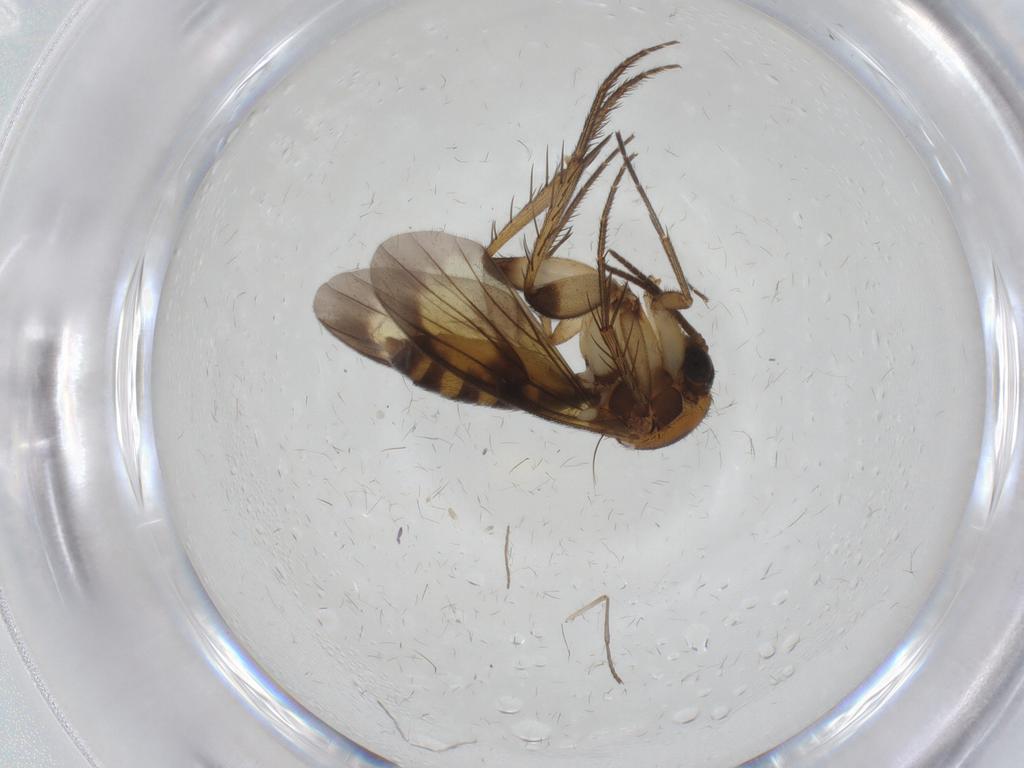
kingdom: Animalia
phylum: Arthropoda
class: Insecta
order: Diptera
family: Mycetophilidae
